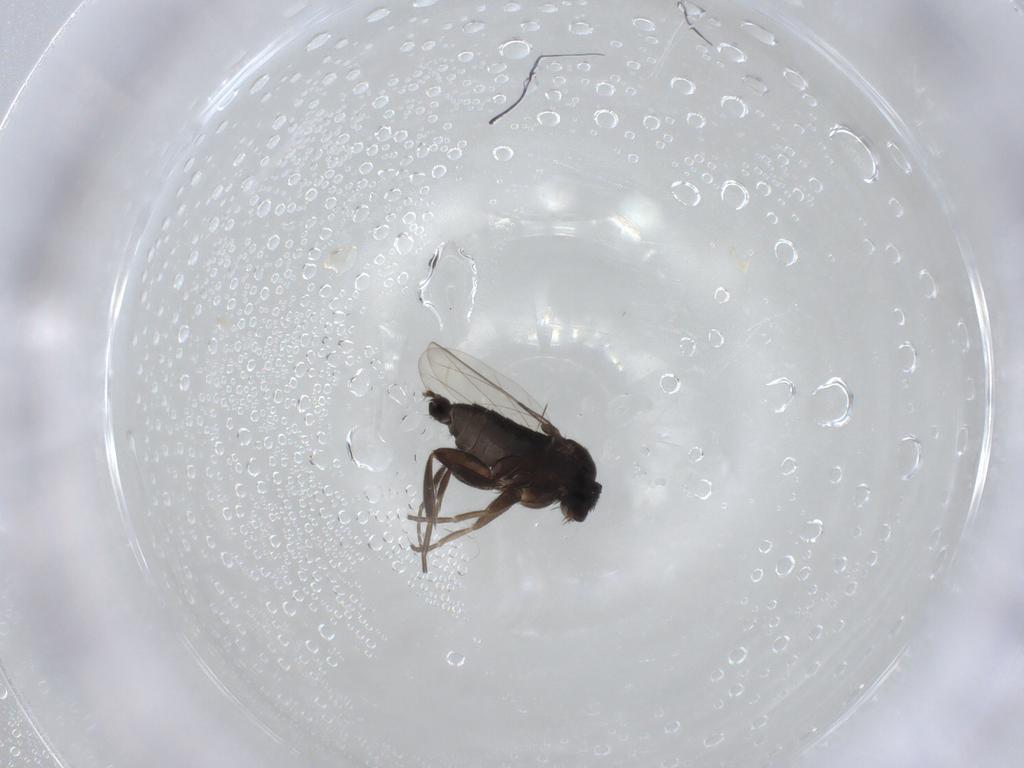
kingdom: Animalia
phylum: Arthropoda
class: Insecta
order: Diptera
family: Phoridae
